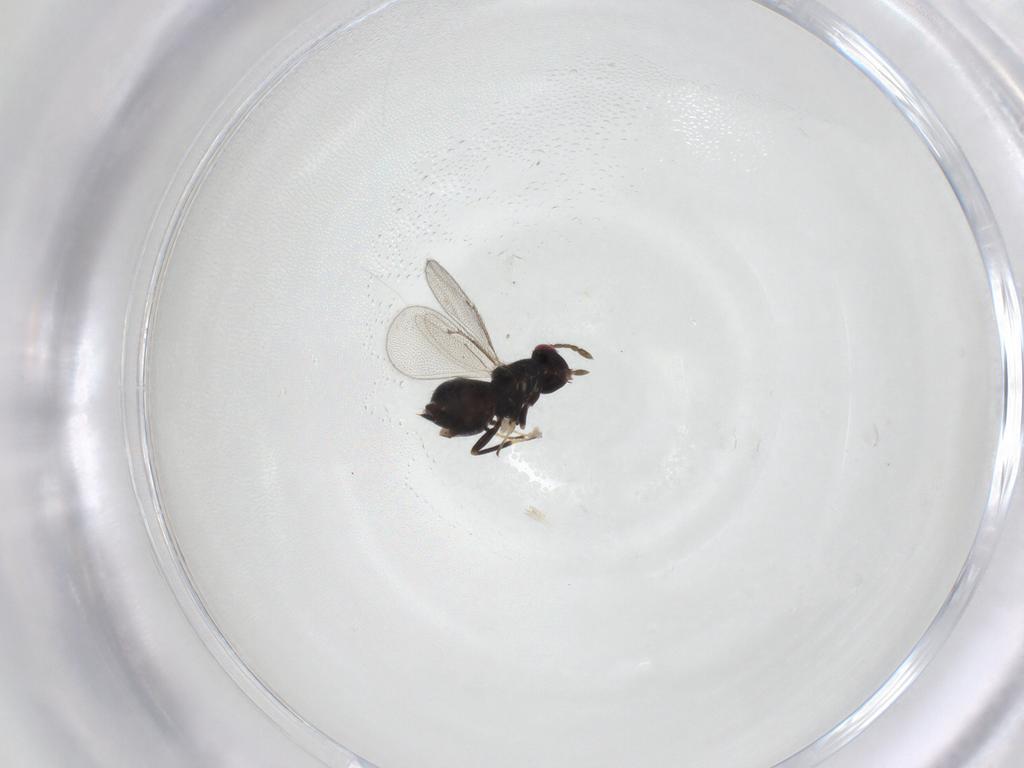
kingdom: Animalia
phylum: Arthropoda
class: Insecta
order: Hymenoptera
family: Eulophidae
